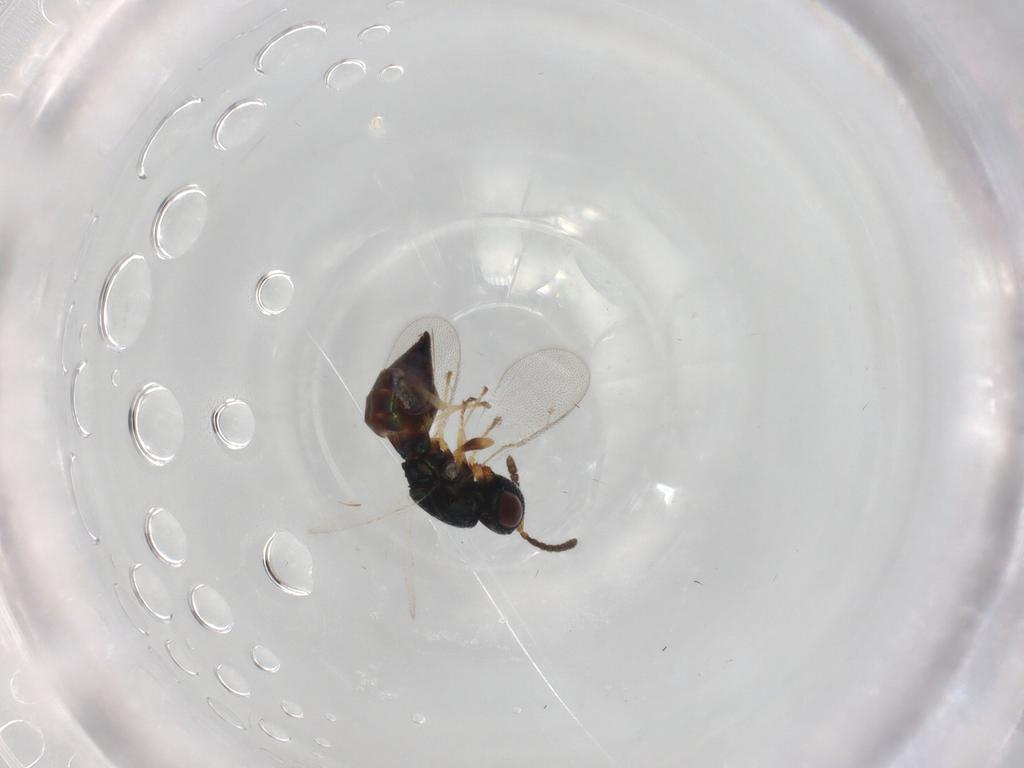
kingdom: Animalia
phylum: Arthropoda
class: Insecta
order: Hymenoptera
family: Pteromalidae
